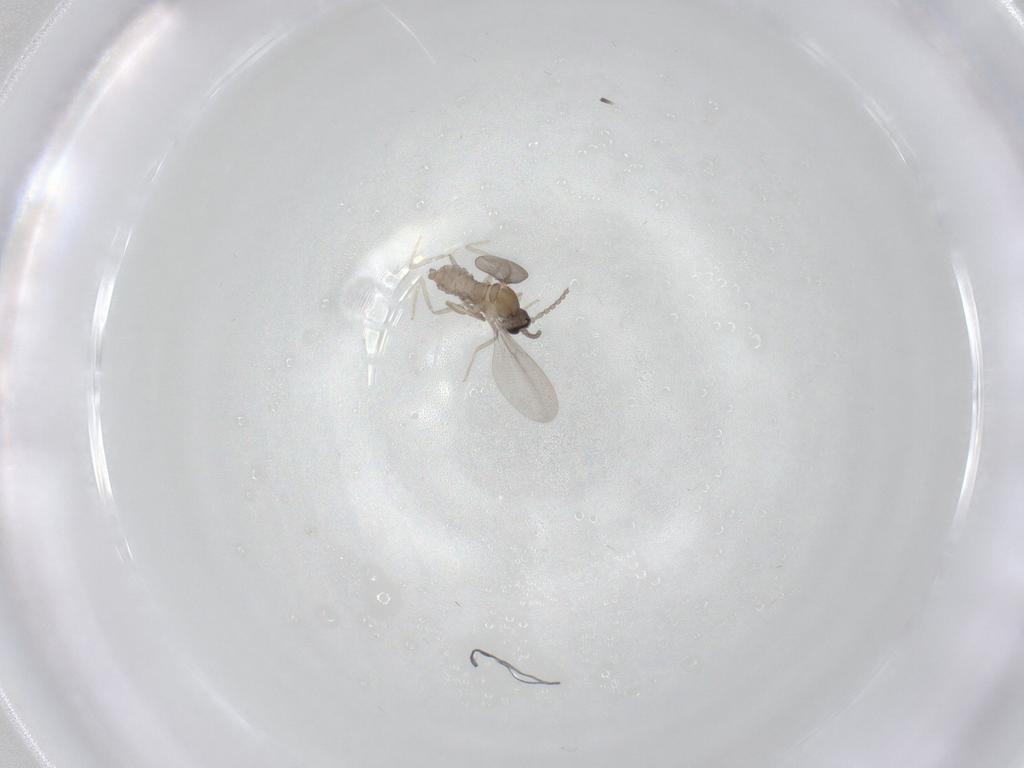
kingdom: Animalia
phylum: Arthropoda
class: Insecta
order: Diptera
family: Cecidomyiidae
